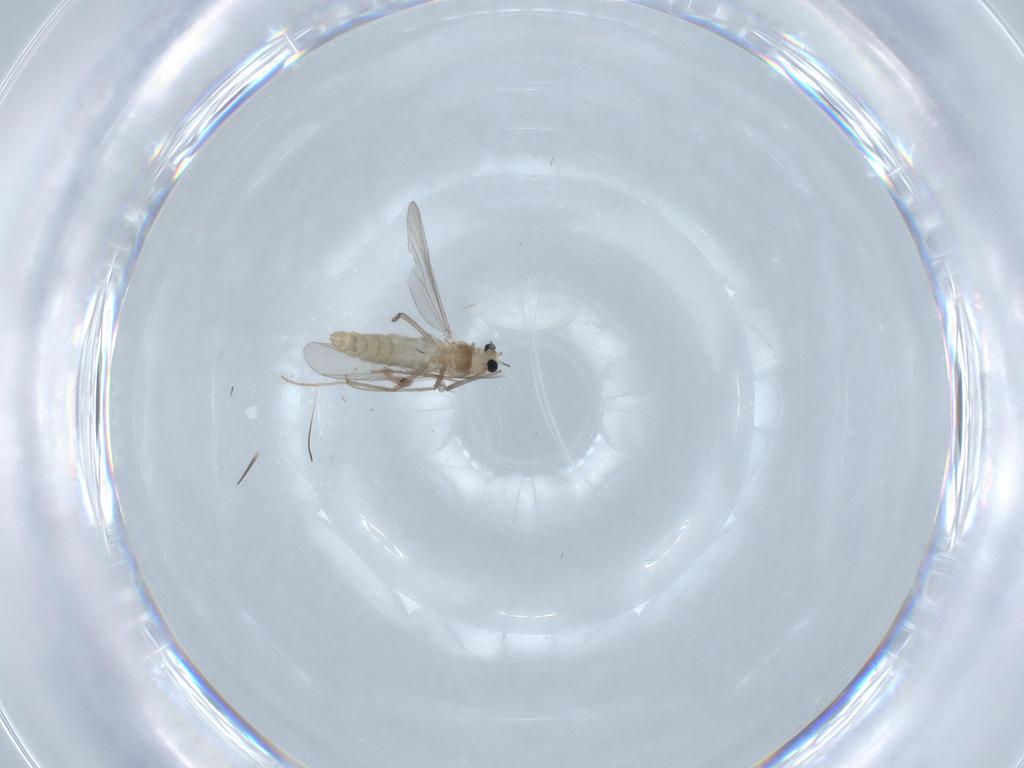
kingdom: Animalia
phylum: Arthropoda
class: Insecta
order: Diptera
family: Chironomidae
